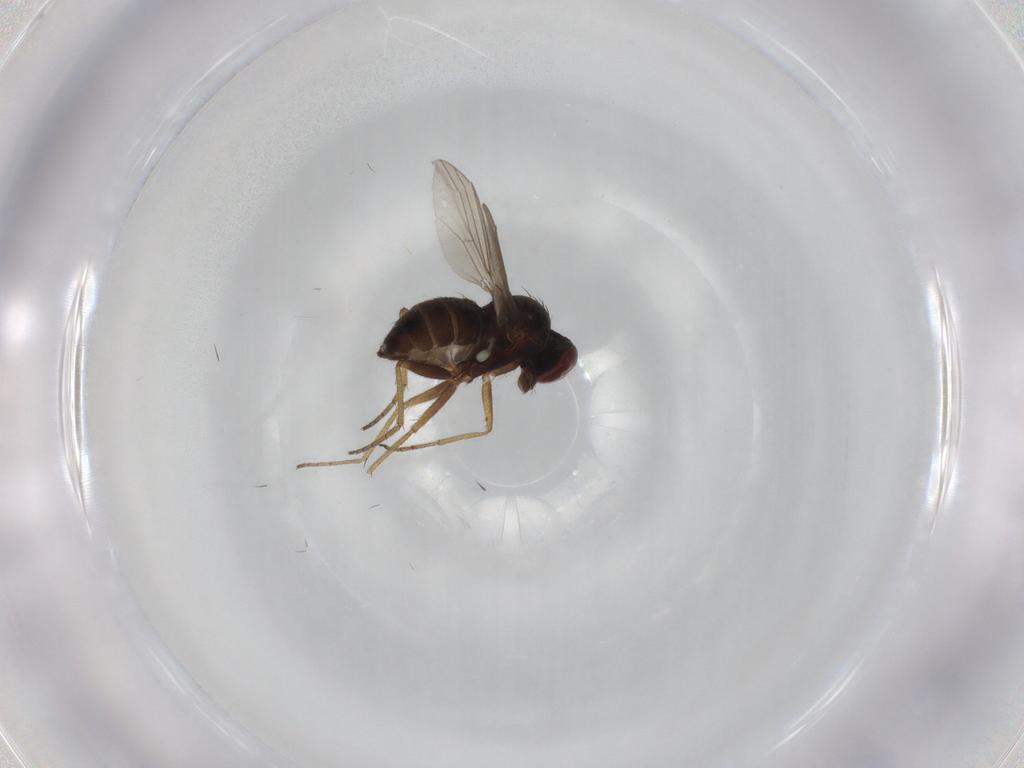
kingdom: Animalia
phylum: Arthropoda
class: Insecta
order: Diptera
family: Dolichopodidae
